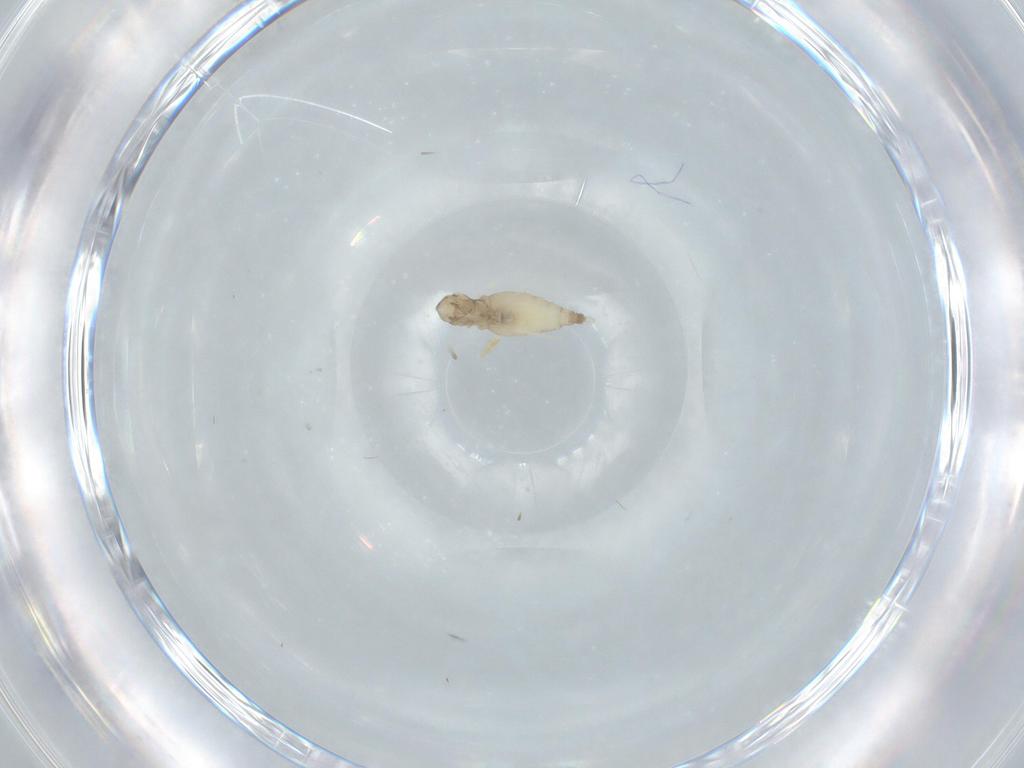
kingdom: Animalia
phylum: Arthropoda
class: Insecta
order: Diptera
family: Cecidomyiidae
